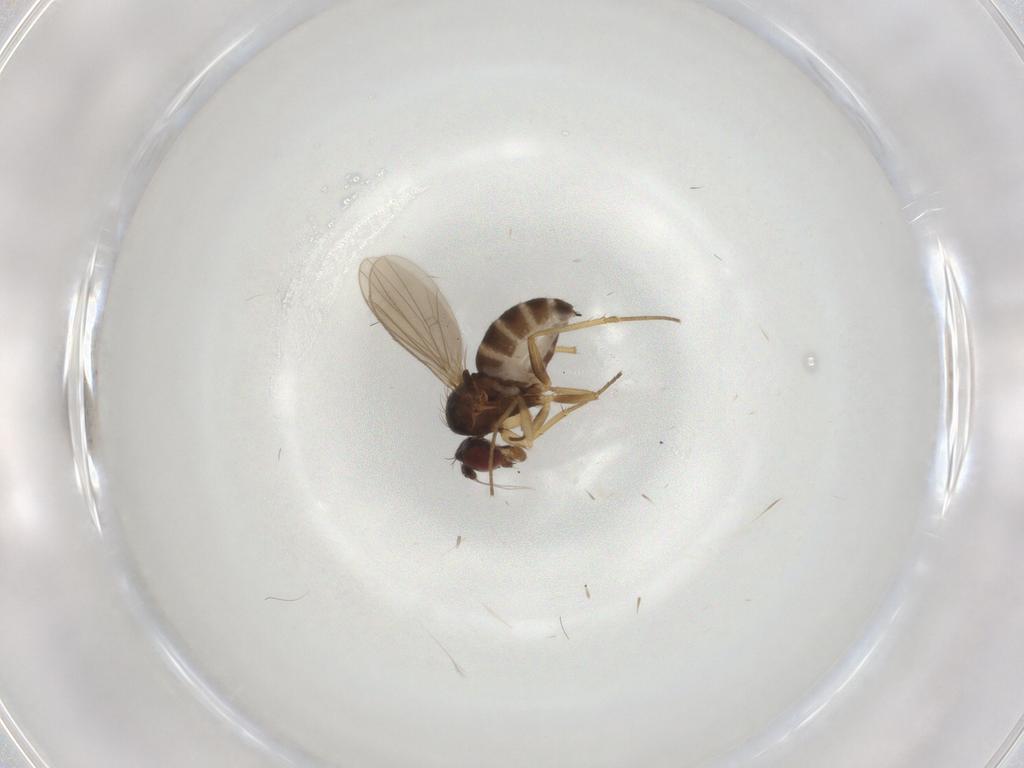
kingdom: Animalia
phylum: Arthropoda
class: Insecta
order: Diptera
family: Dolichopodidae
